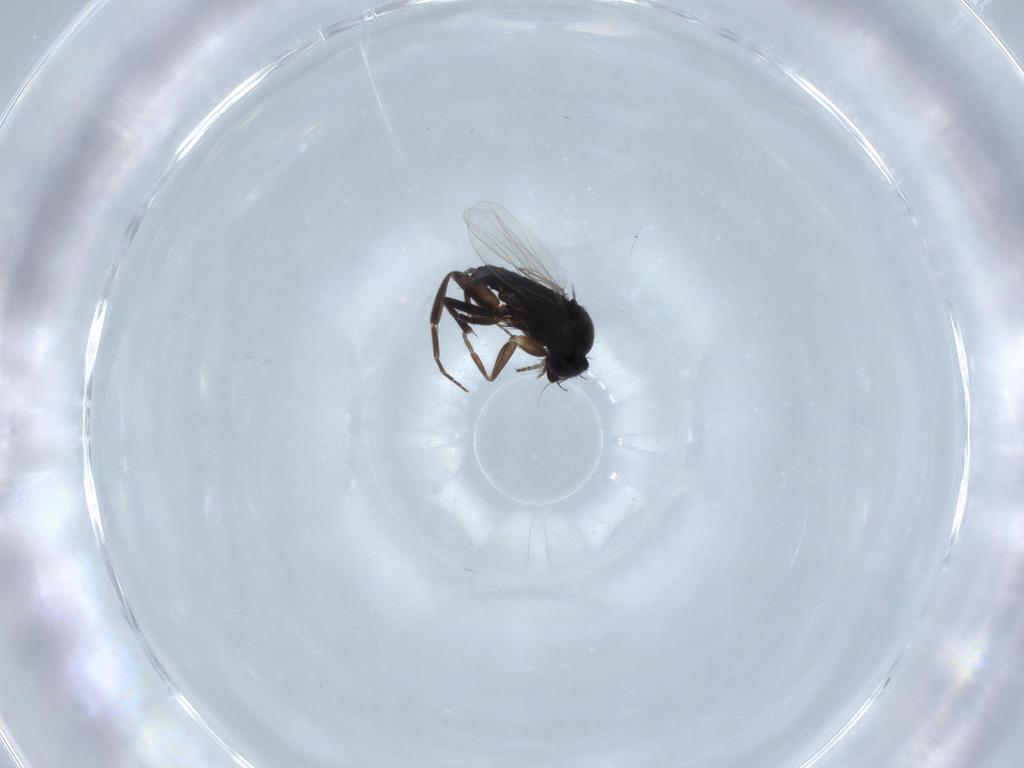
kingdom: Animalia
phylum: Arthropoda
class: Insecta
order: Diptera
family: Phoridae
